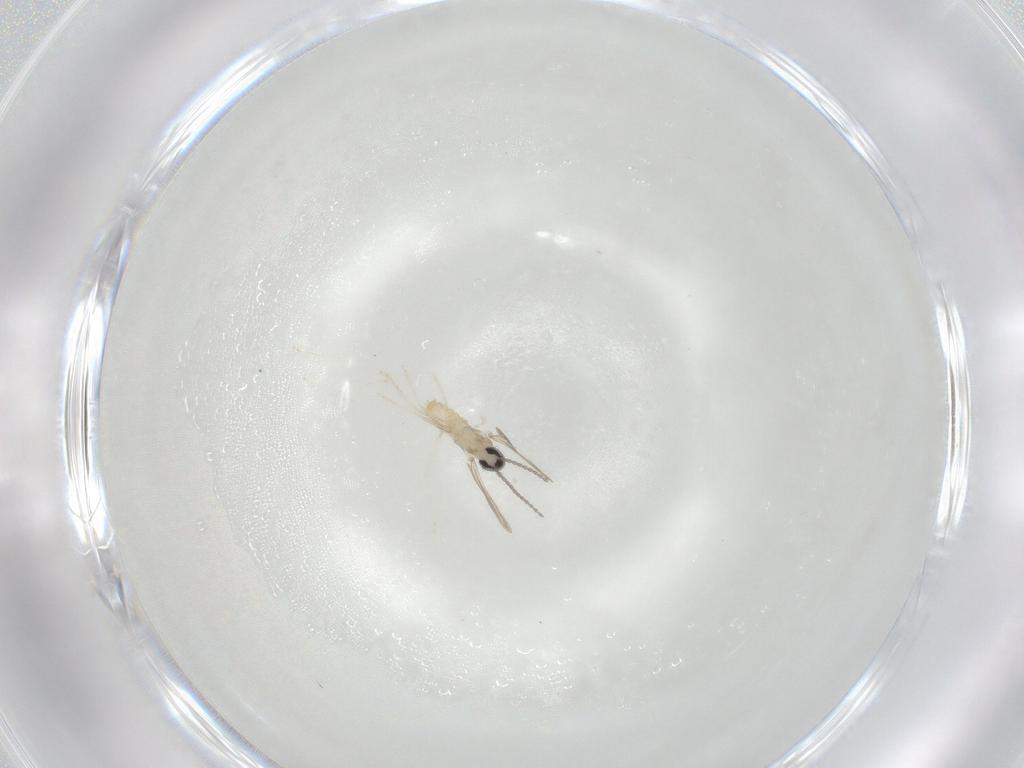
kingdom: Animalia
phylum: Arthropoda
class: Insecta
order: Diptera
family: Cecidomyiidae
